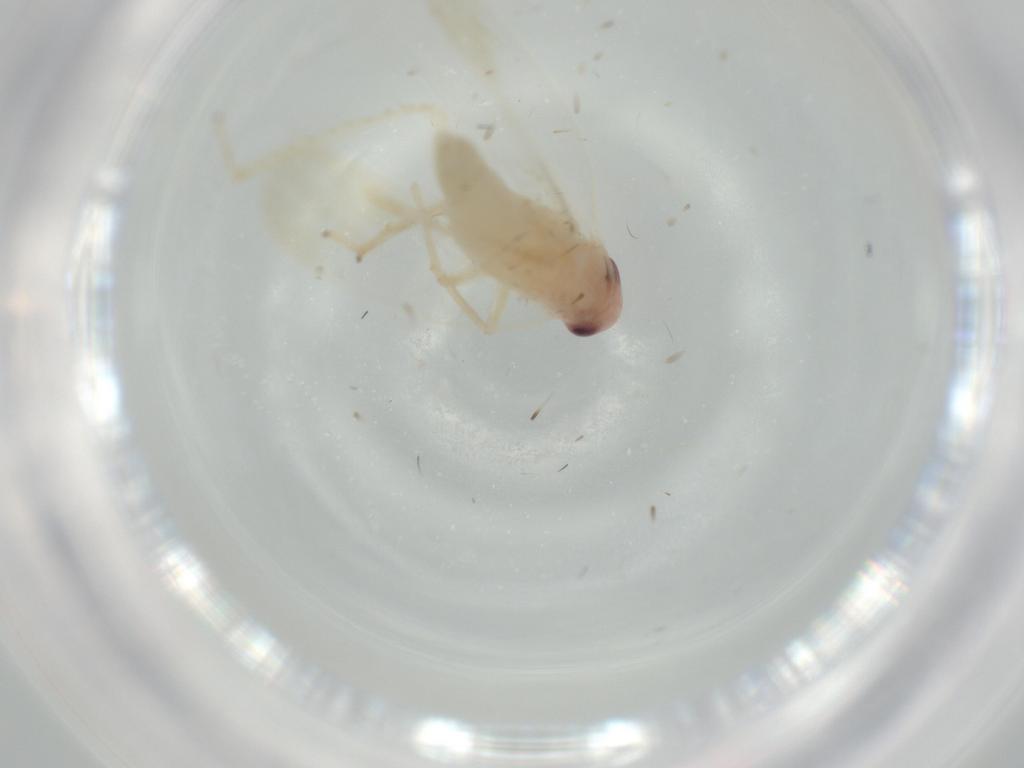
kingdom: Animalia
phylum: Arthropoda
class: Insecta
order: Hemiptera
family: Cicadellidae
